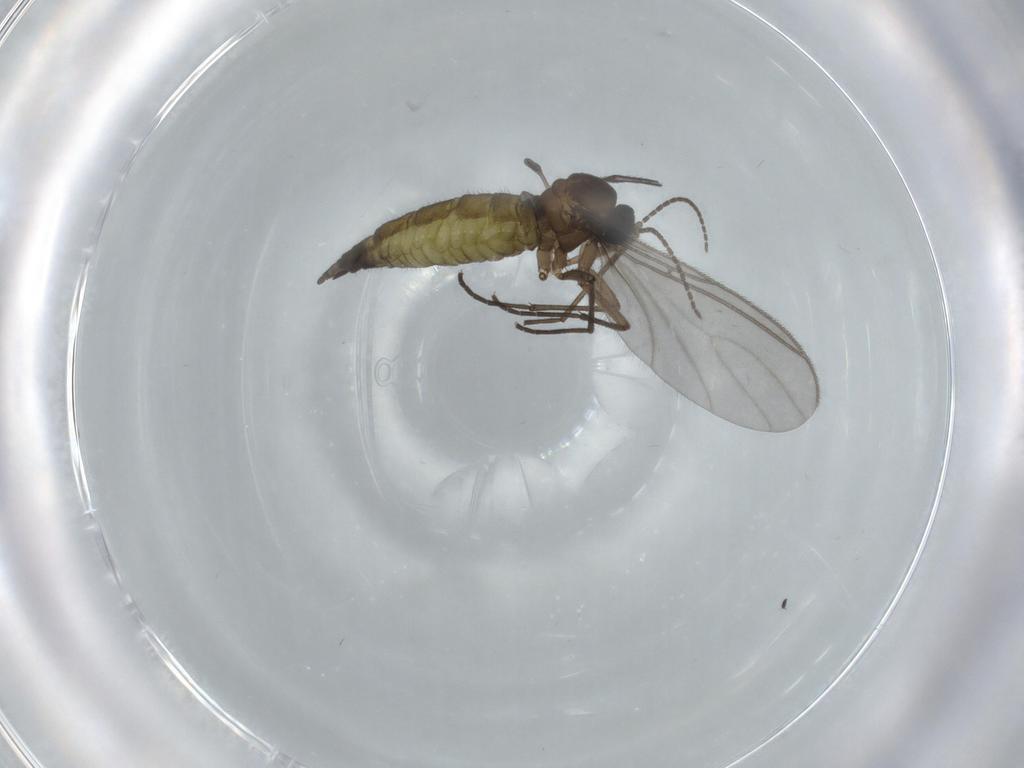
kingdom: Animalia
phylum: Arthropoda
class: Insecta
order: Diptera
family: Sciaridae
